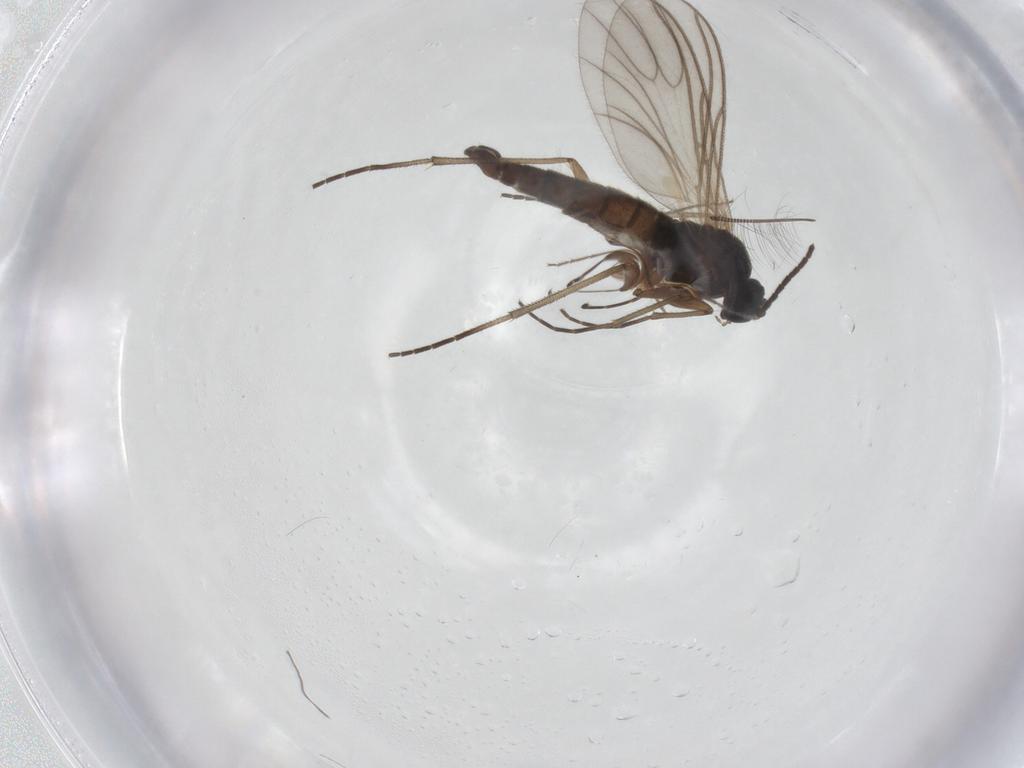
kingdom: Animalia
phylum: Arthropoda
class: Insecta
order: Diptera
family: Sciaridae
